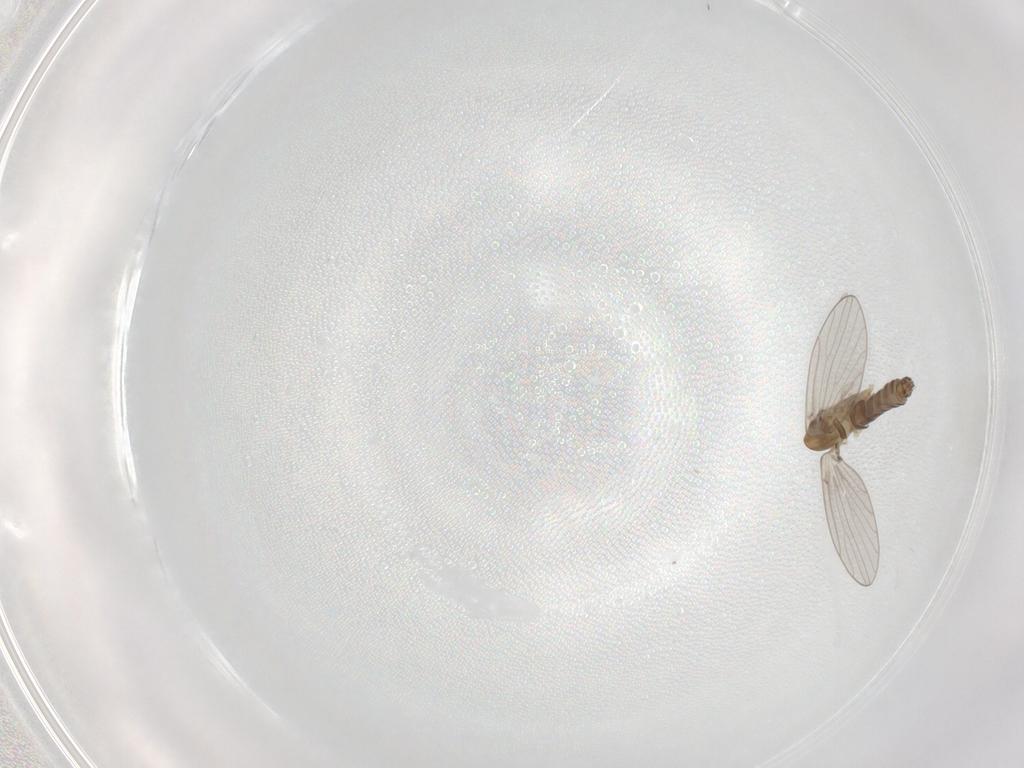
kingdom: Animalia
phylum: Arthropoda
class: Insecta
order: Diptera
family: Psychodidae
